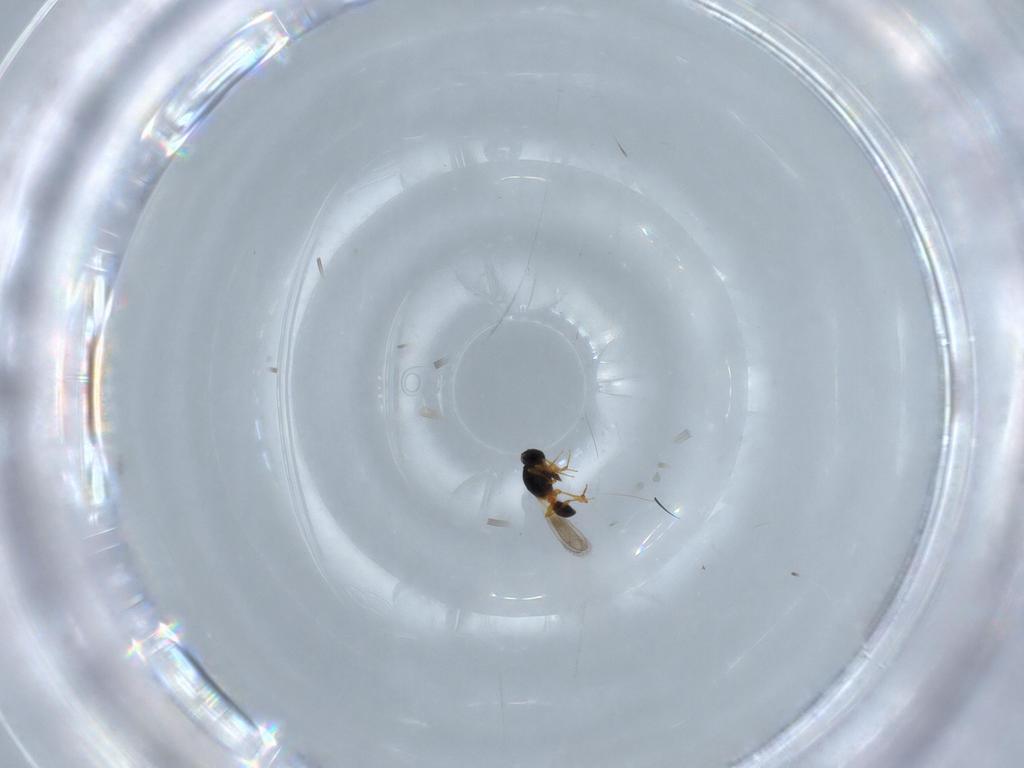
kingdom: Animalia
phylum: Arthropoda
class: Insecta
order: Hymenoptera
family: Platygastridae
